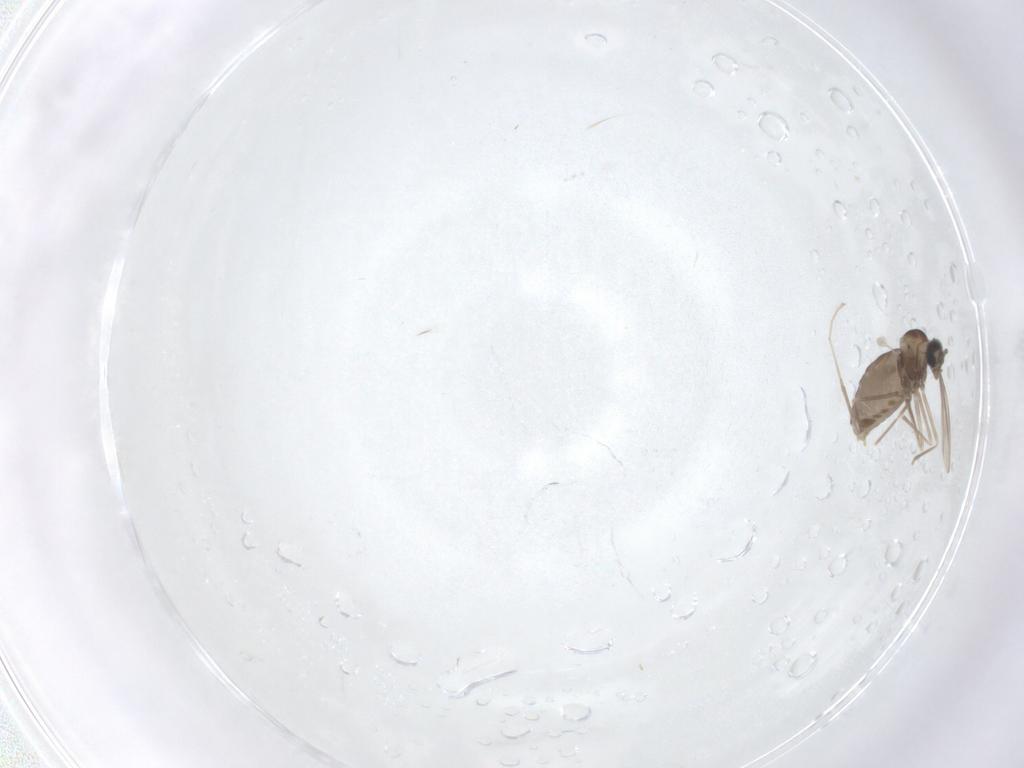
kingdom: Animalia
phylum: Arthropoda
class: Insecta
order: Diptera
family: Chironomidae
